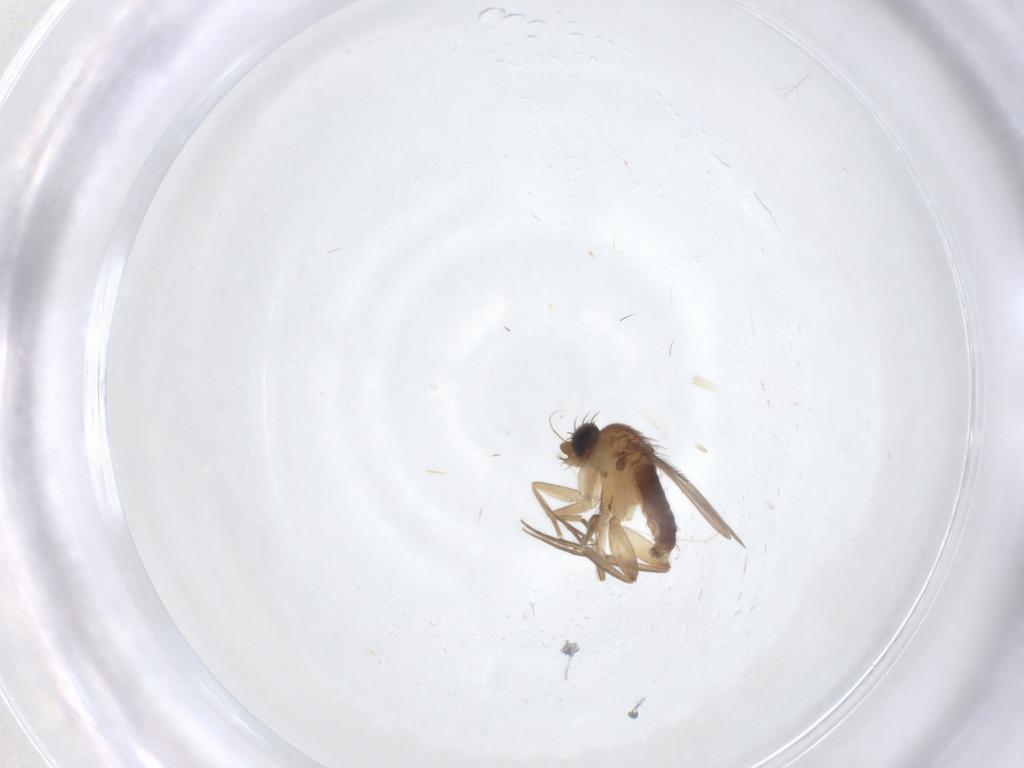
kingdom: Animalia
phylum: Arthropoda
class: Insecta
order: Diptera
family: Phoridae
